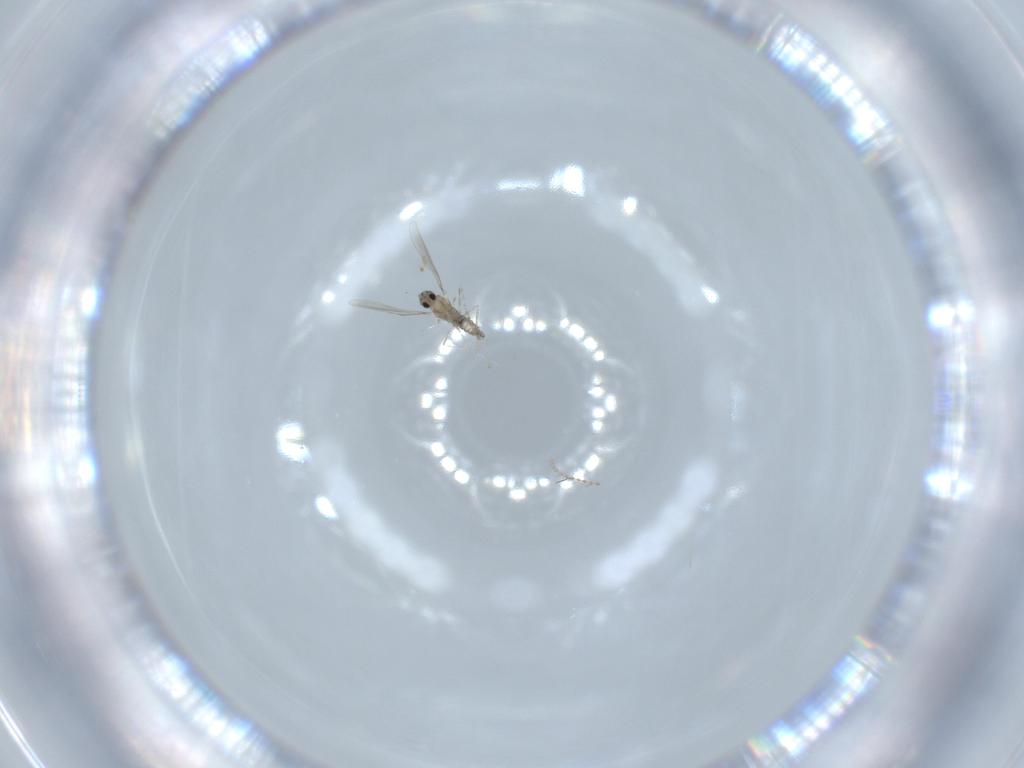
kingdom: Animalia
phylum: Arthropoda
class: Insecta
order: Diptera
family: Cecidomyiidae
